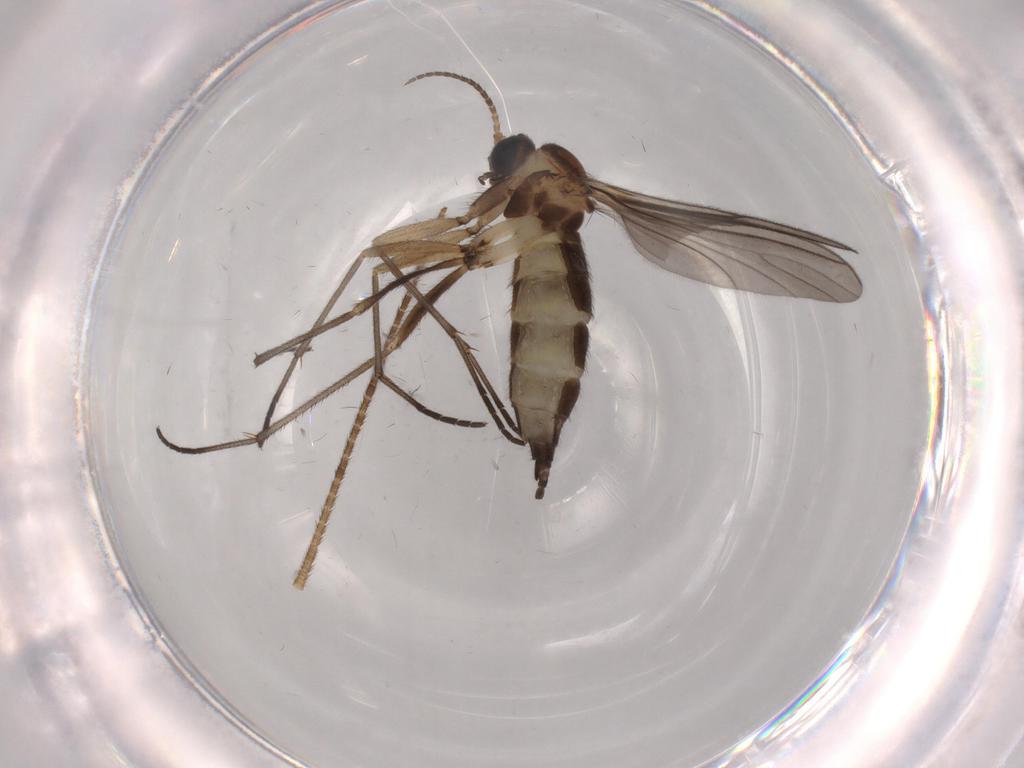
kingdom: Animalia
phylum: Arthropoda
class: Insecta
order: Diptera
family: Sciaridae
